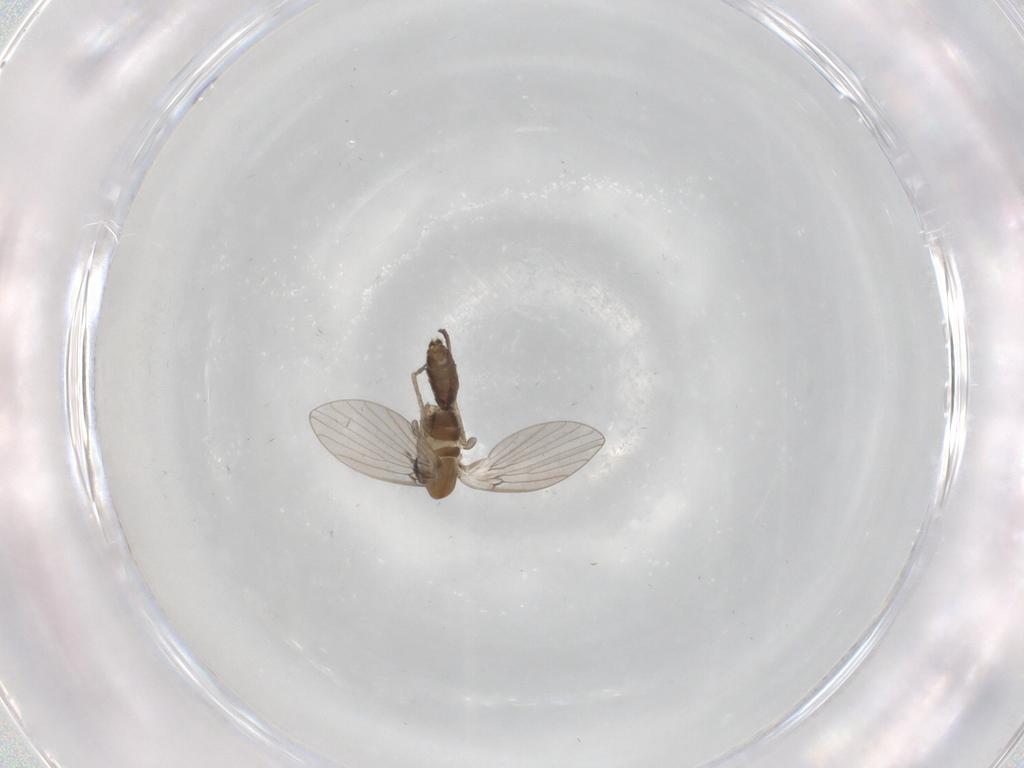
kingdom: Animalia
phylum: Arthropoda
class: Insecta
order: Diptera
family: Psychodidae
